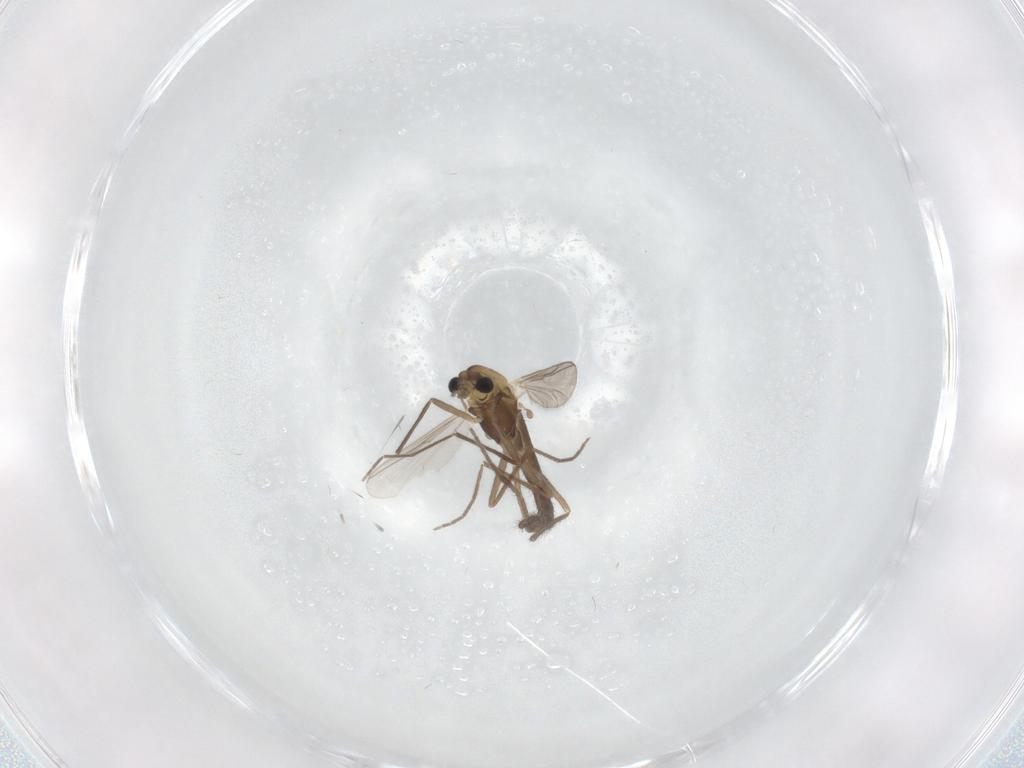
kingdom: Animalia
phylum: Arthropoda
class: Insecta
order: Diptera
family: Chironomidae
